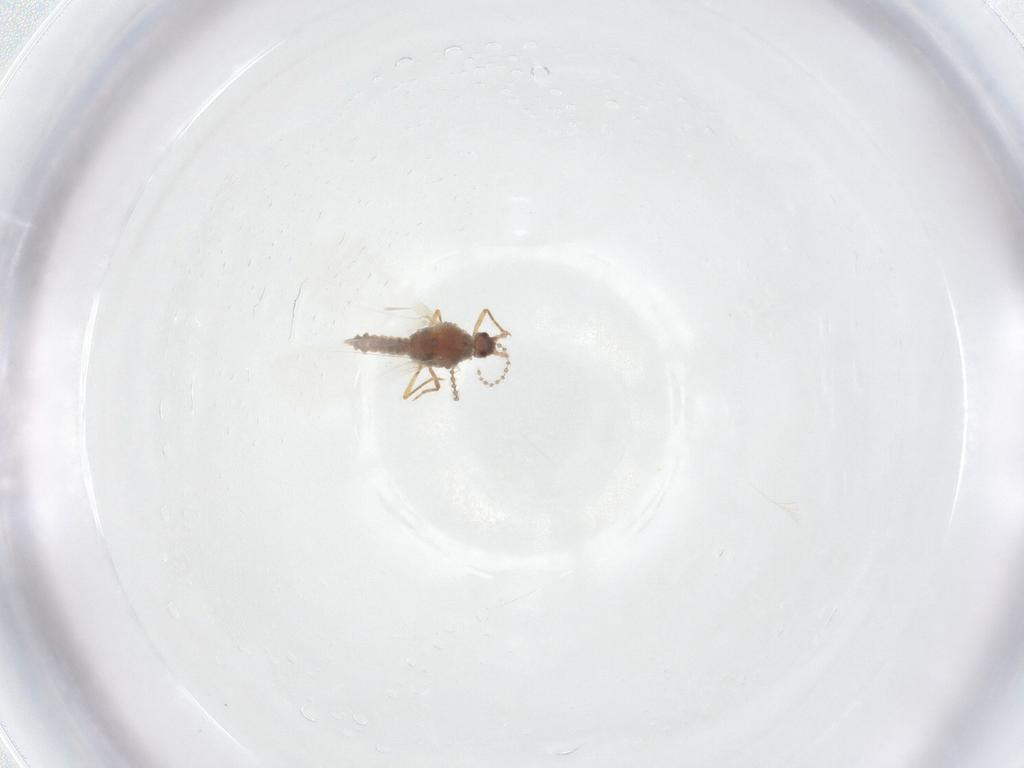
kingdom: Animalia
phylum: Arthropoda
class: Insecta
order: Diptera
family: Cecidomyiidae
